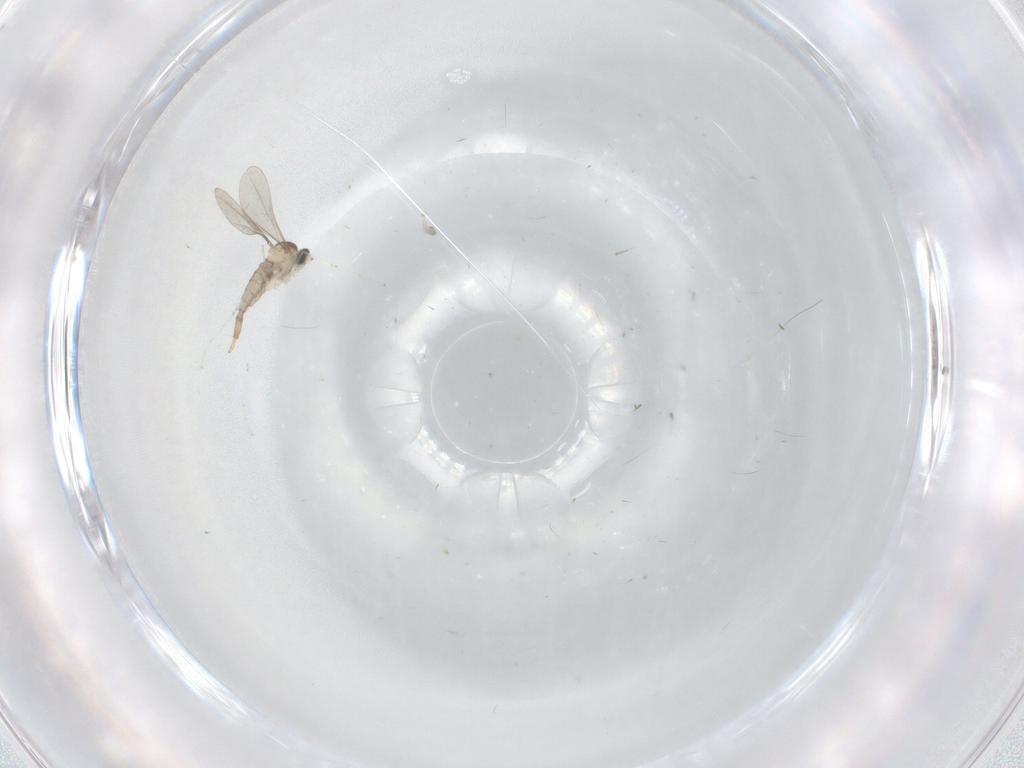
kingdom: Animalia
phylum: Arthropoda
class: Insecta
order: Diptera
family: Cecidomyiidae
